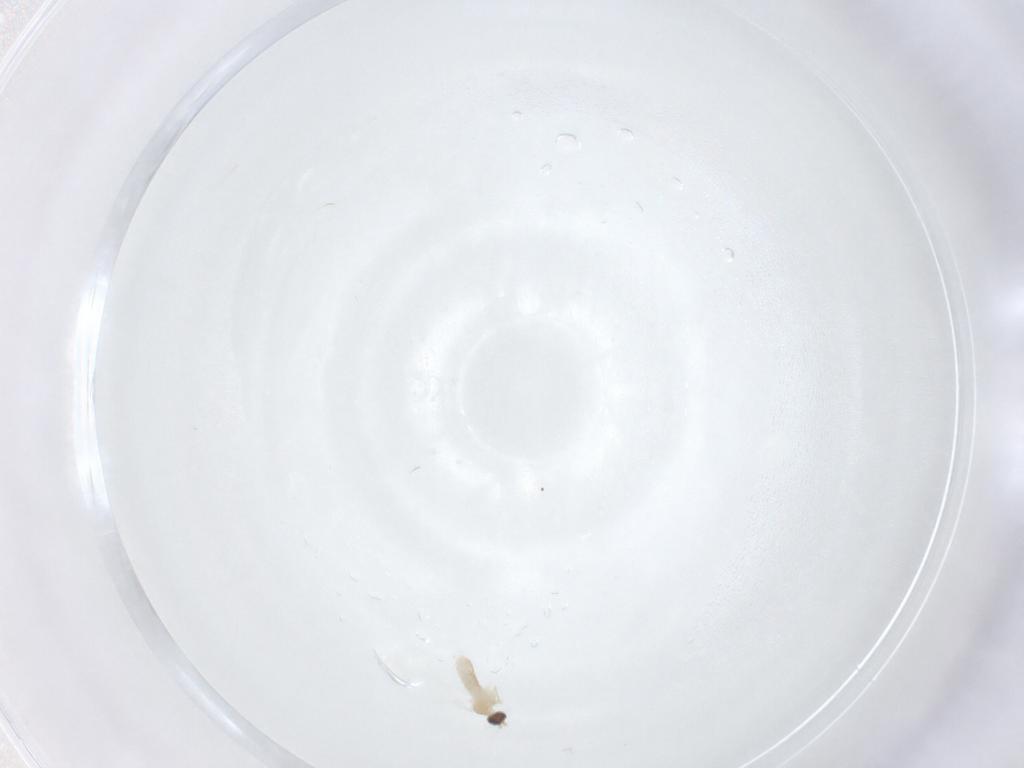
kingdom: Animalia
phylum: Arthropoda
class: Insecta
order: Diptera
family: Cecidomyiidae
